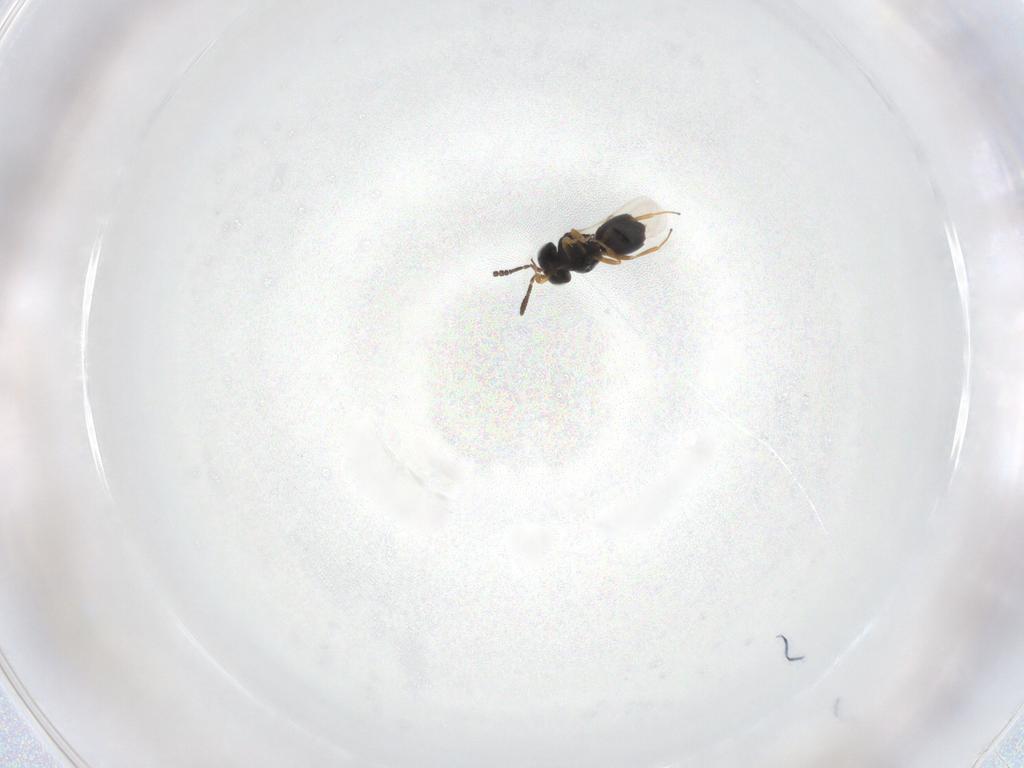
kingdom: Animalia
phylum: Arthropoda
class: Insecta
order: Hymenoptera
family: Scelionidae
